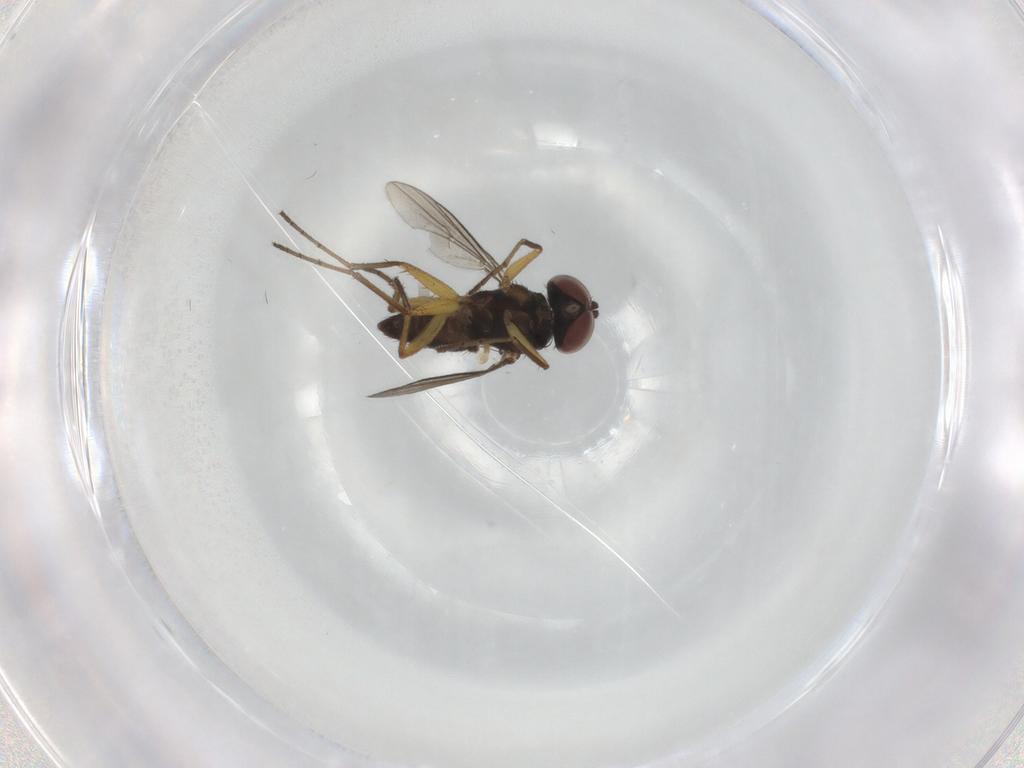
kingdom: Animalia
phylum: Arthropoda
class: Insecta
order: Diptera
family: Dolichopodidae
